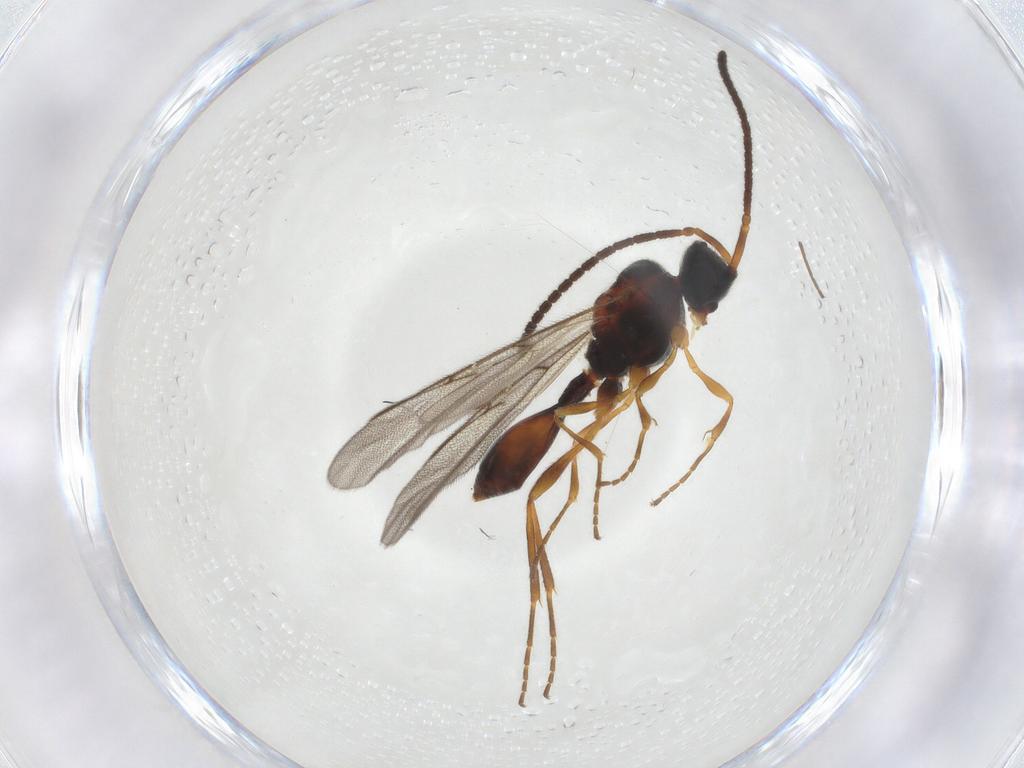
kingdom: Animalia
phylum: Arthropoda
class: Insecta
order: Hymenoptera
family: Diapriidae
